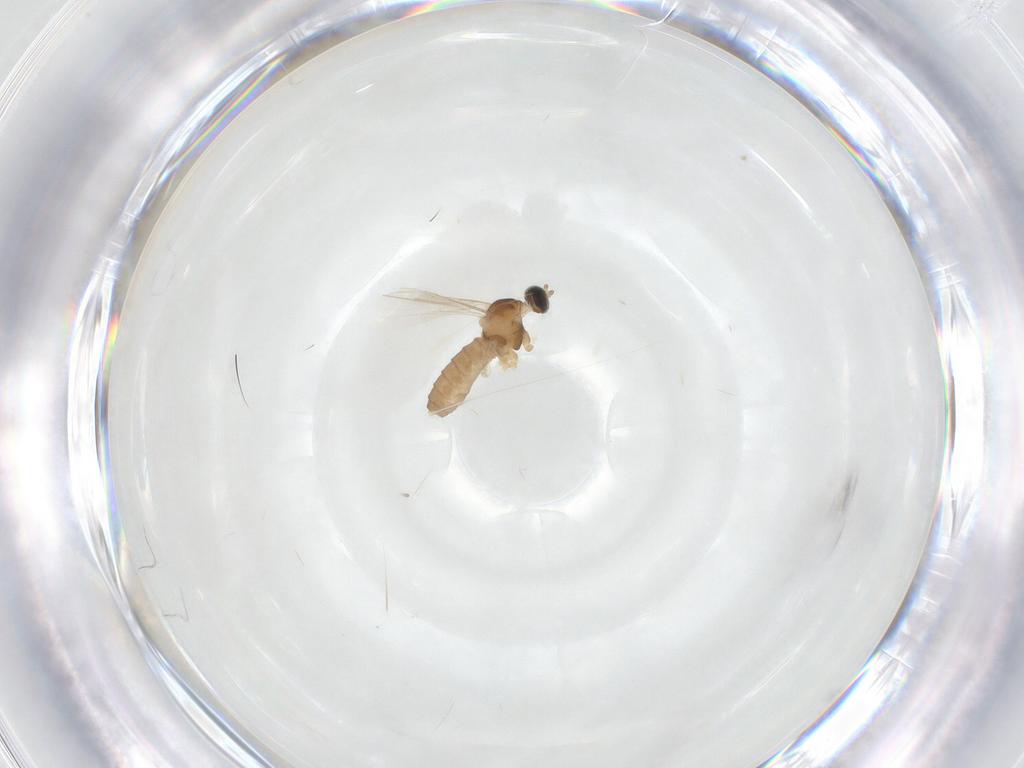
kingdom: Animalia
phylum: Arthropoda
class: Insecta
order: Diptera
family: Cecidomyiidae
